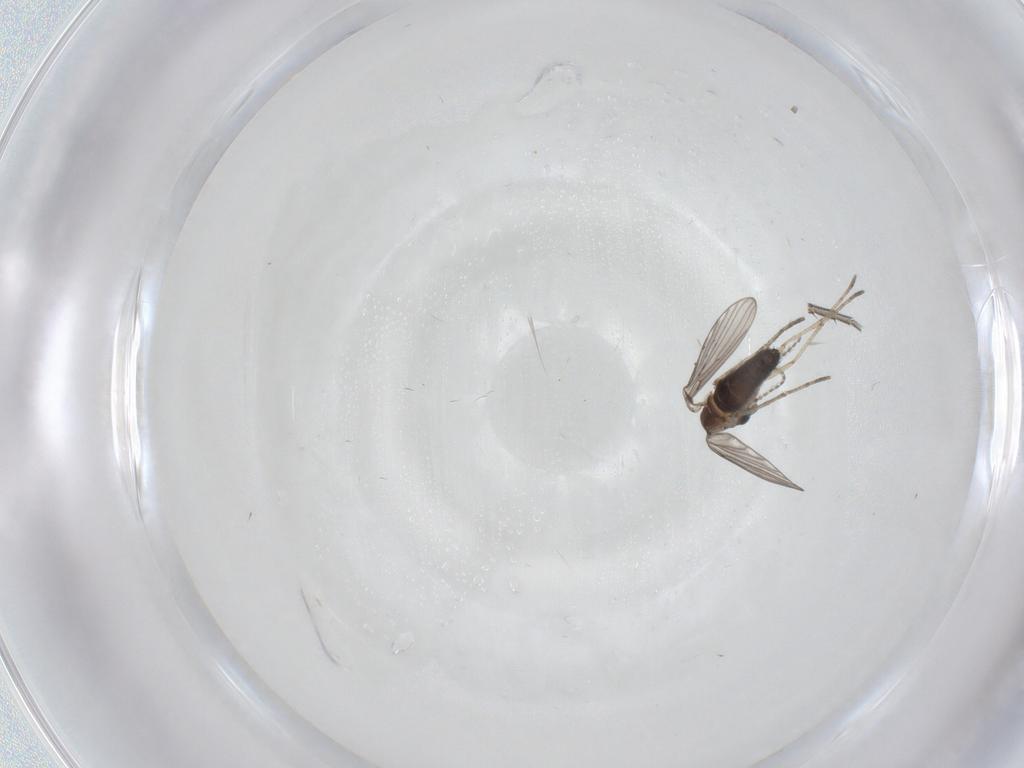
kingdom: Animalia
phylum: Arthropoda
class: Insecta
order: Diptera
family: Psychodidae
